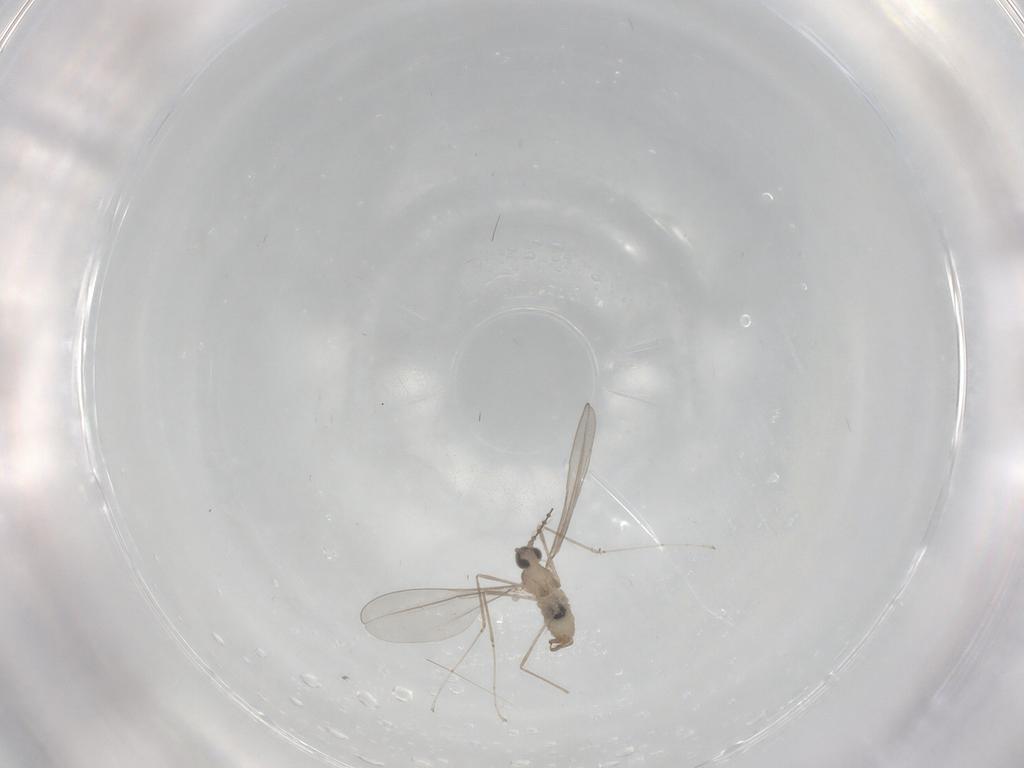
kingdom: Animalia
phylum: Arthropoda
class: Insecta
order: Diptera
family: Cecidomyiidae
